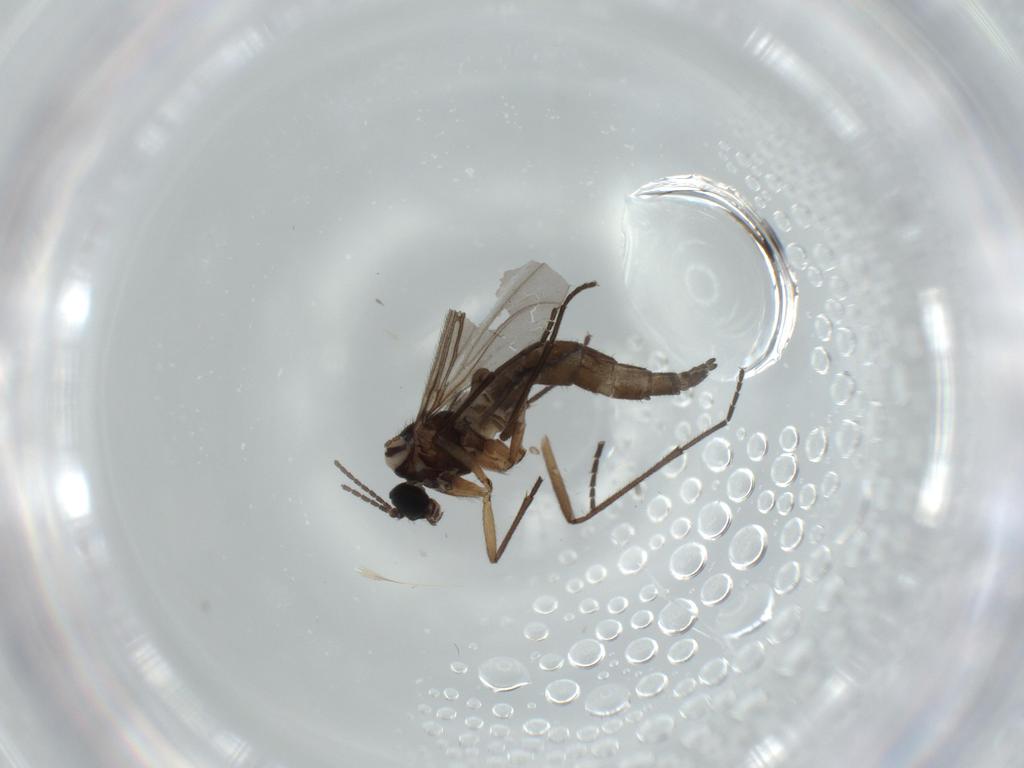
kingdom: Animalia
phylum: Arthropoda
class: Insecta
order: Diptera
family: Sciaridae
